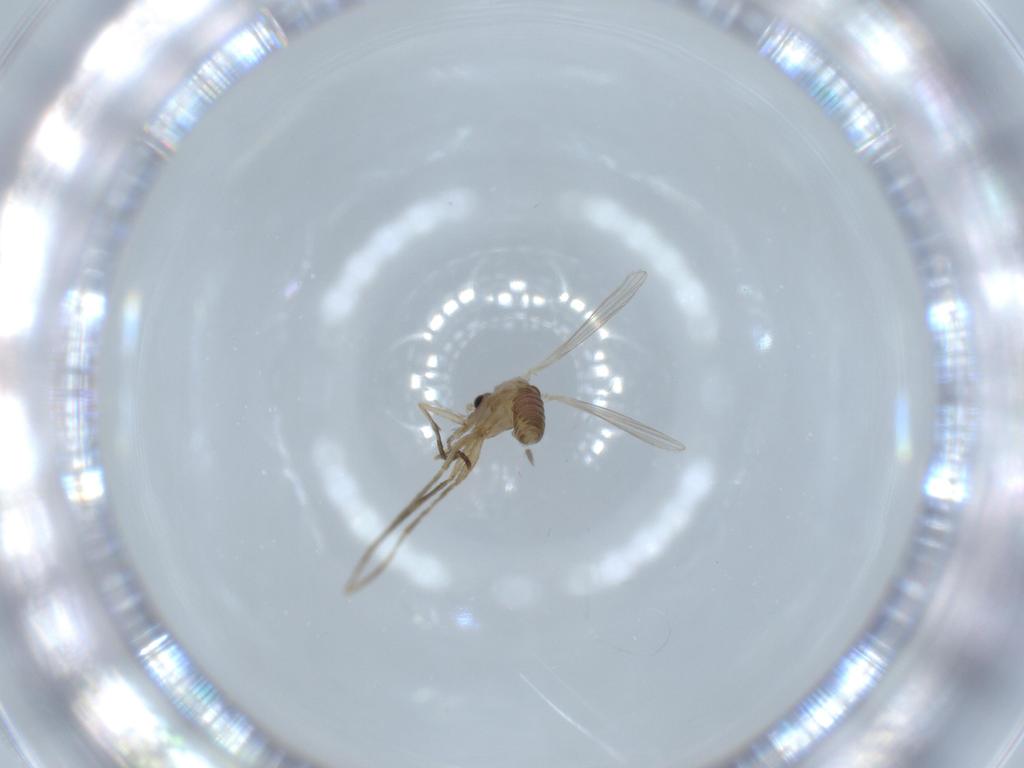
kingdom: Animalia
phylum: Arthropoda
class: Insecta
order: Diptera
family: Psychodidae
